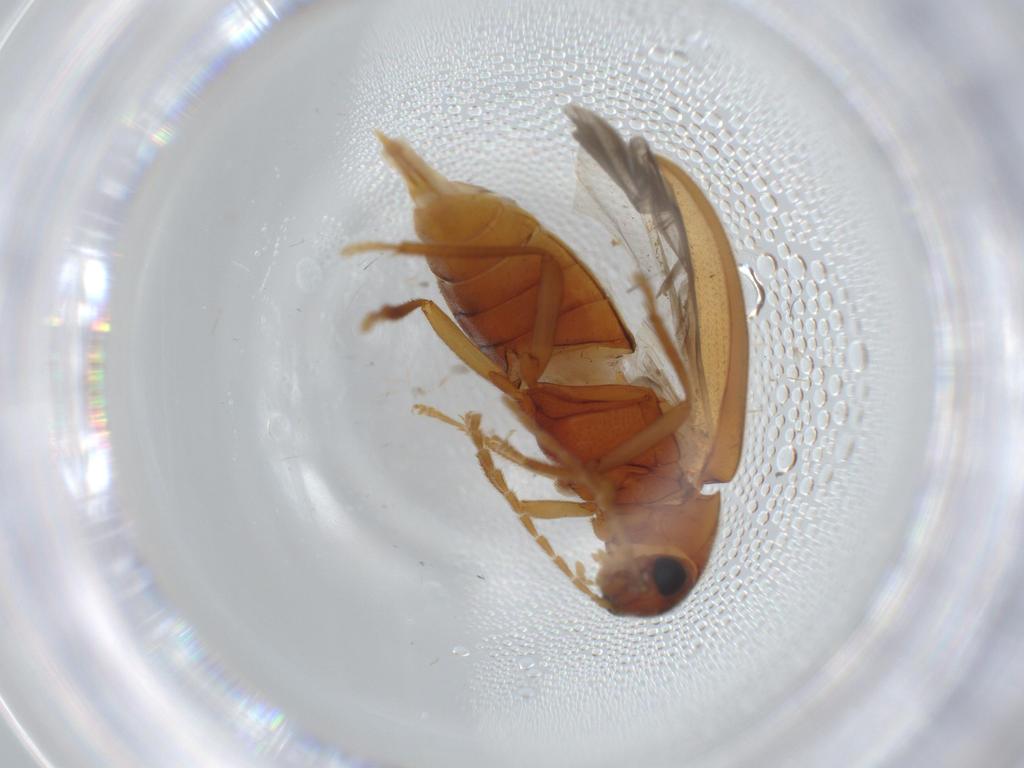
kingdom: Animalia
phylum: Arthropoda
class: Insecta
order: Coleoptera
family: Ptilodactylidae
